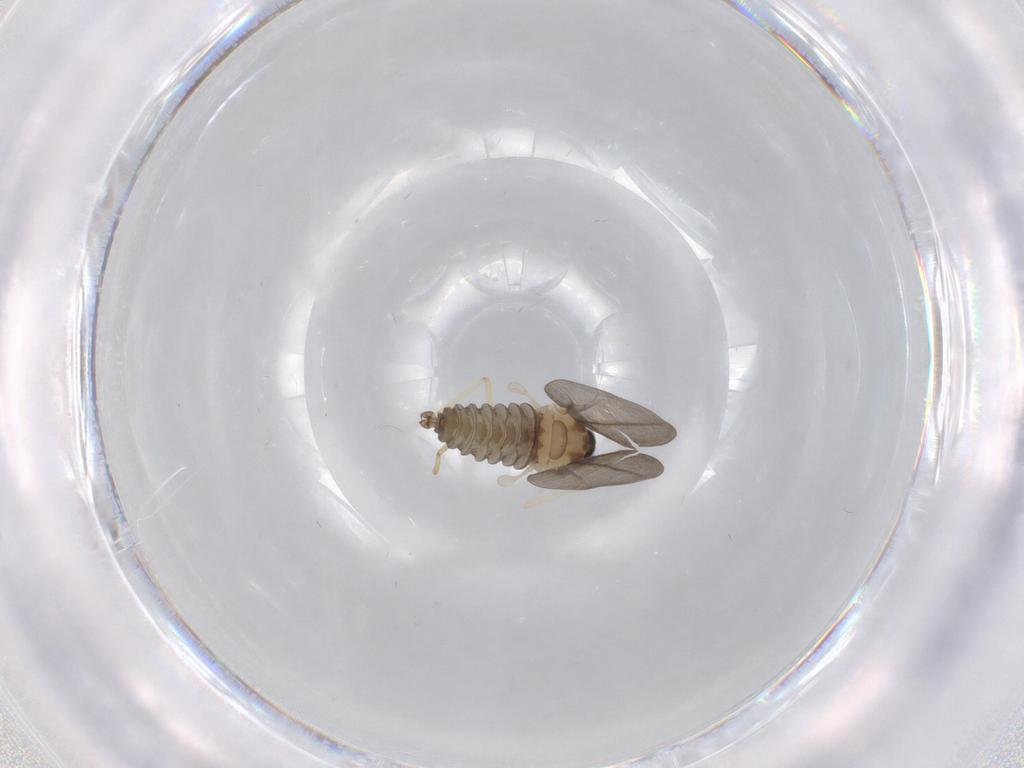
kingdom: Animalia
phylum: Arthropoda
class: Insecta
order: Diptera
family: Cecidomyiidae
